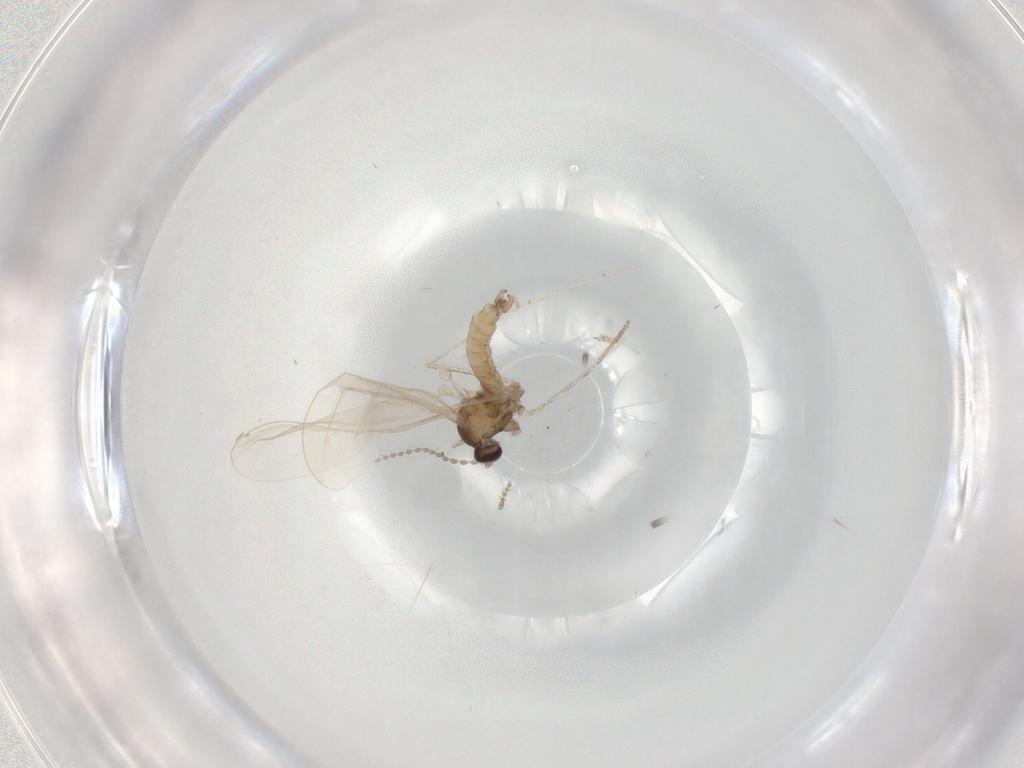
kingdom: Animalia
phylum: Arthropoda
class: Insecta
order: Diptera
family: Cecidomyiidae
